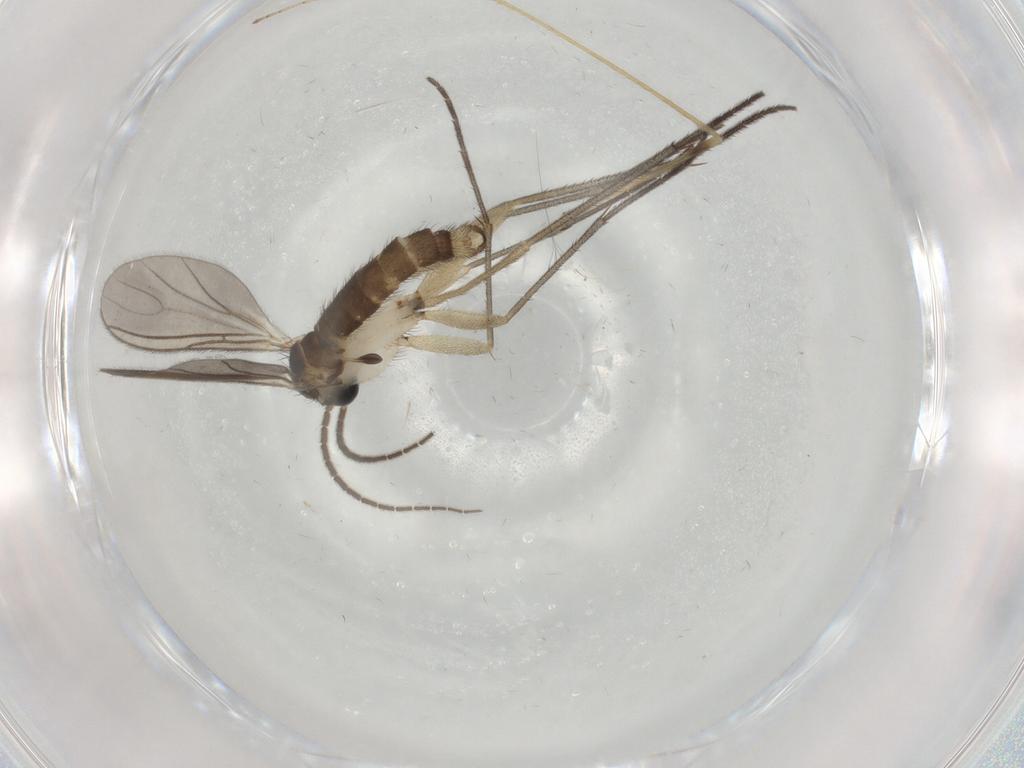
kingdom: Animalia
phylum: Arthropoda
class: Insecta
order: Diptera
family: Sciaridae
